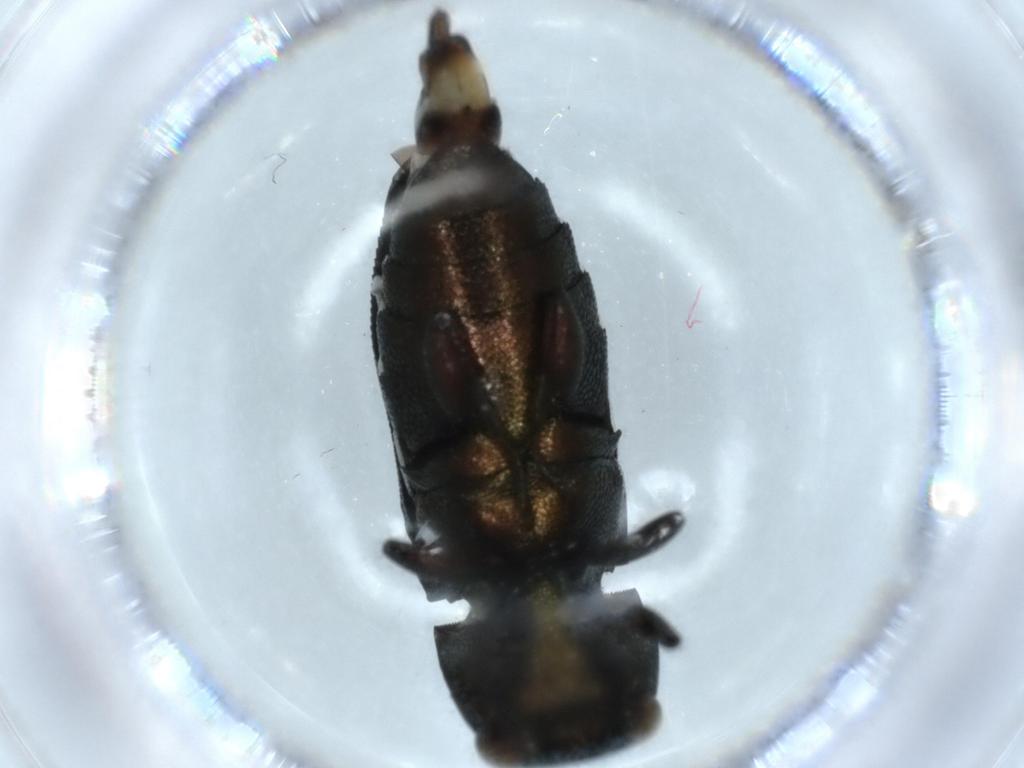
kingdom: Animalia
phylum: Arthropoda
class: Insecta
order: Coleoptera
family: Buprestidae
